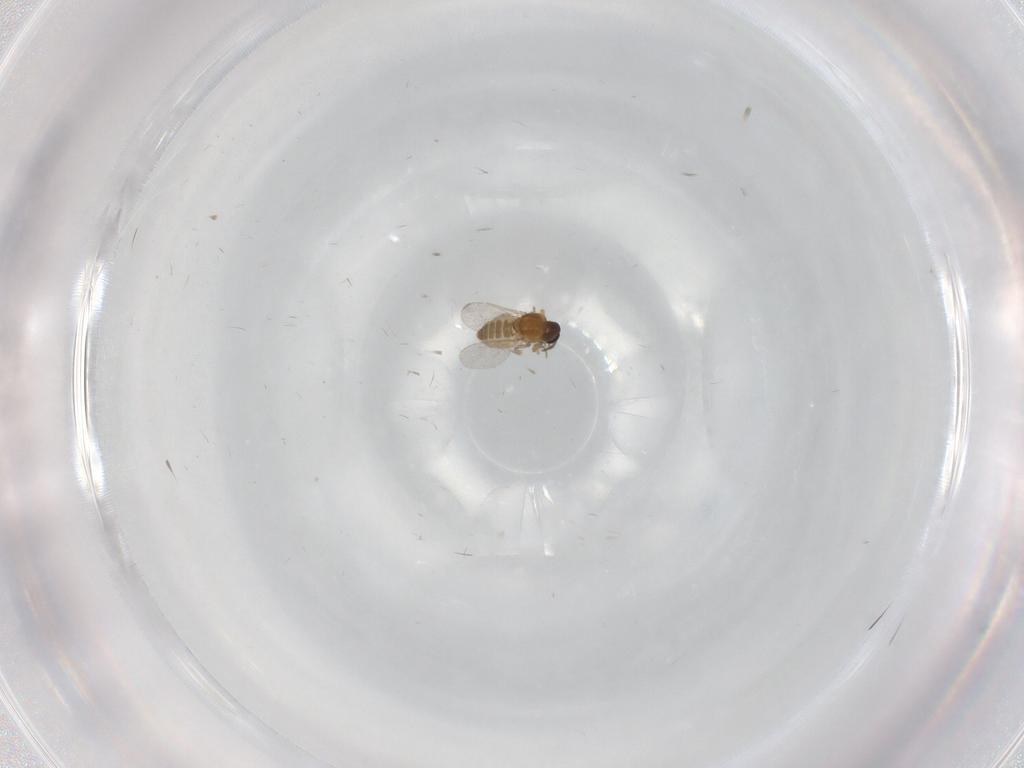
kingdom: Animalia
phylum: Arthropoda
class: Insecta
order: Diptera
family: Ceratopogonidae
